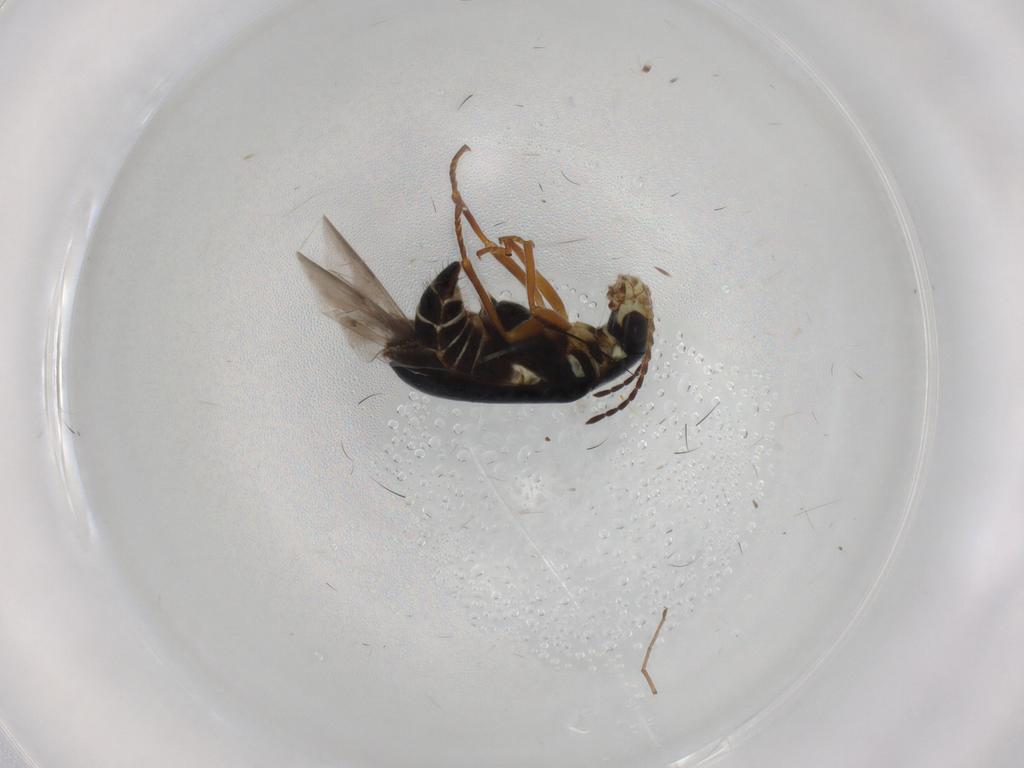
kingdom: Animalia
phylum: Arthropoda
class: Insecta
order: Coleoptera
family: Melyridae
